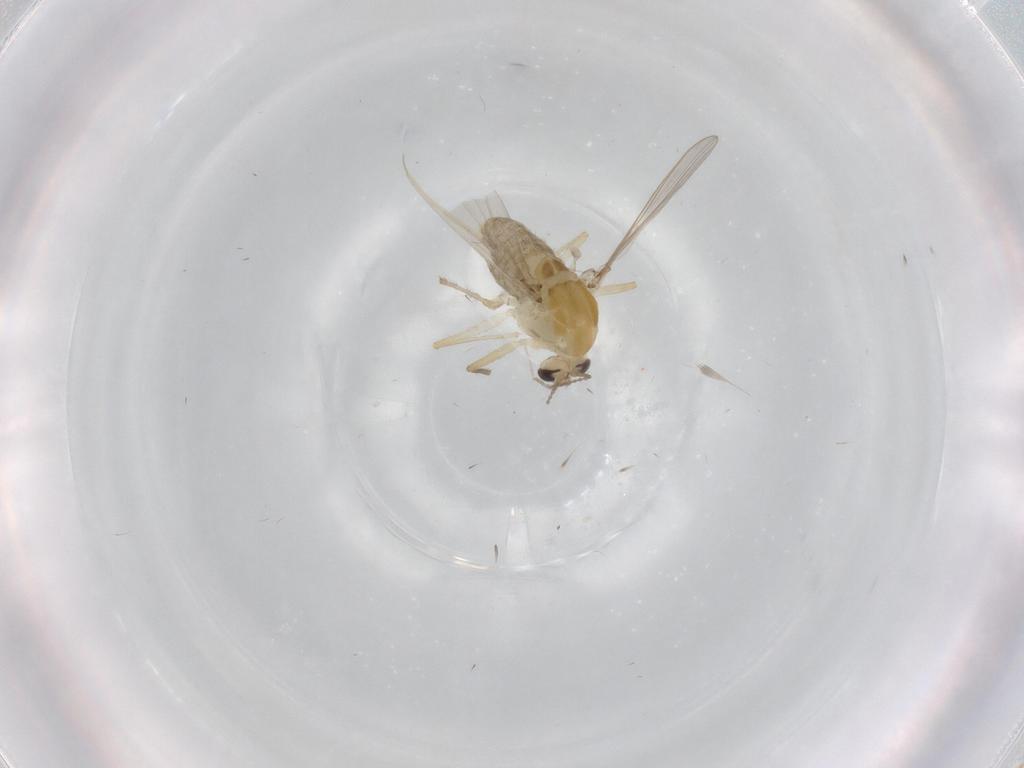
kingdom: Animalia
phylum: Arthropoda
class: Insecta
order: Diptera
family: Chironomidae
